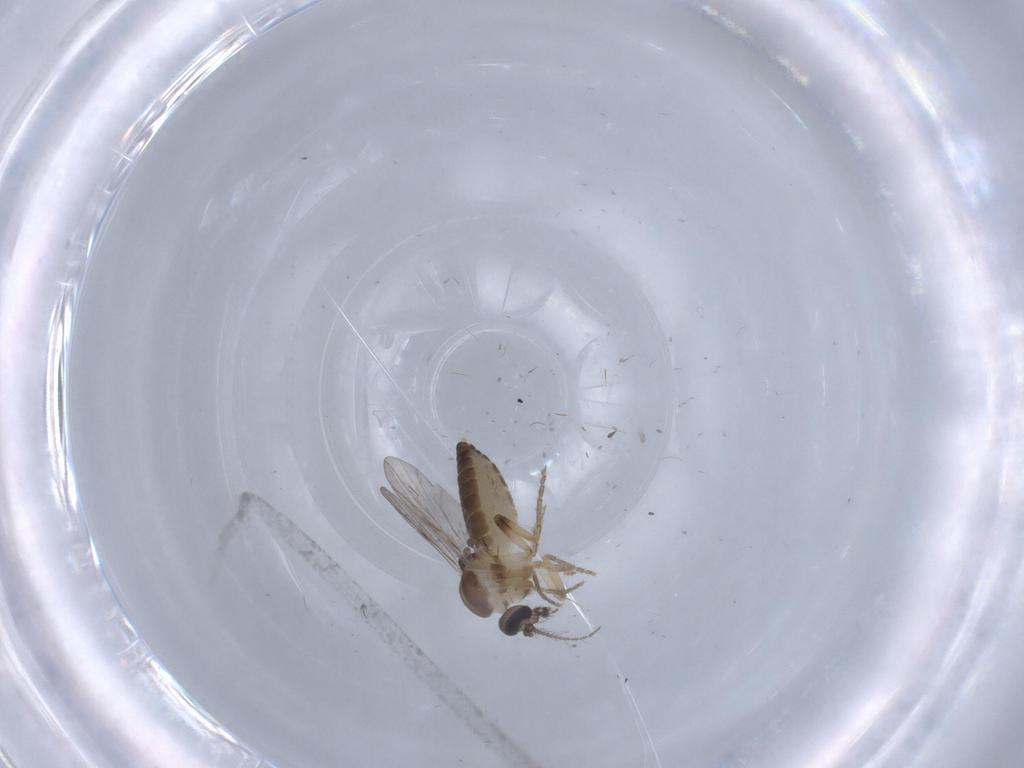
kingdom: Animalia
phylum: Arthropoda
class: Insecta
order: Diptera
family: Ceratopogonidae
